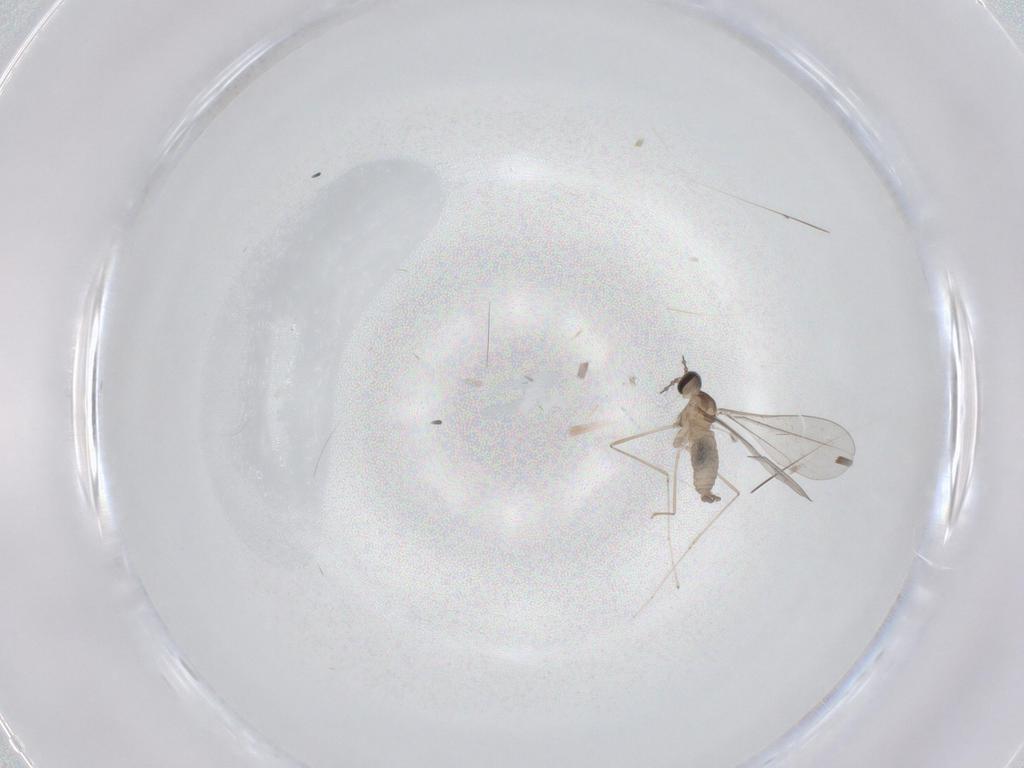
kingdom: Animalia
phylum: Arthropoda
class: Insecta
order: Diptera
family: Cecidomyiidae
